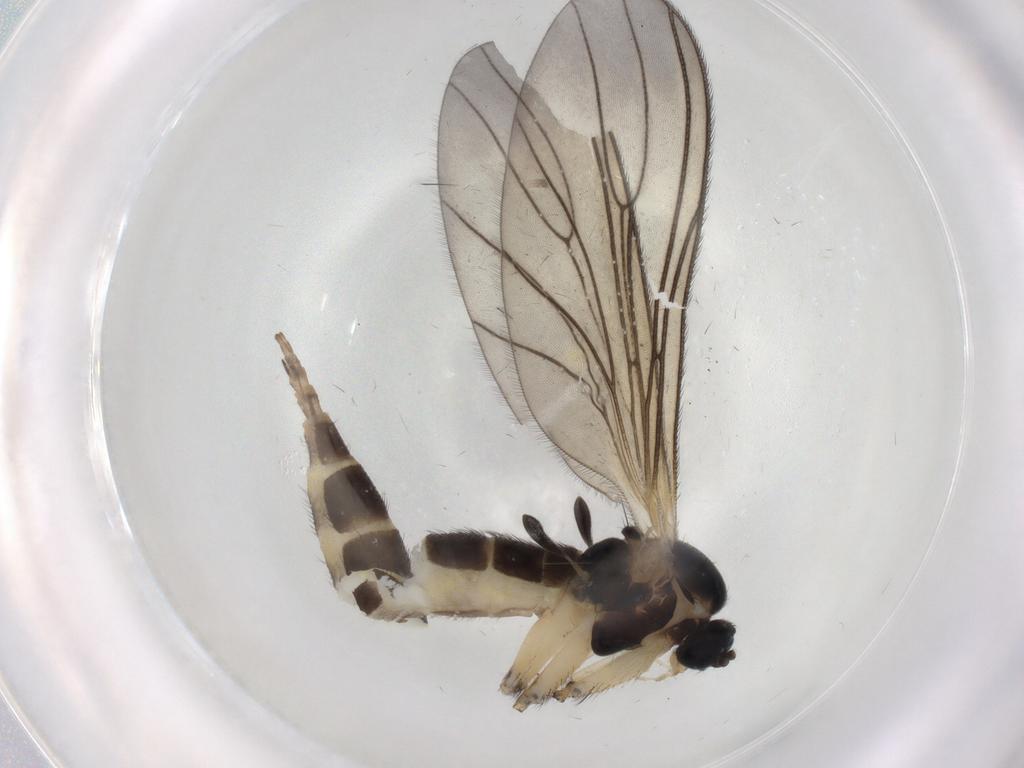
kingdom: Animalia
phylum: Arthropoda
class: Insecta
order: Diptera
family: Sciaridae
